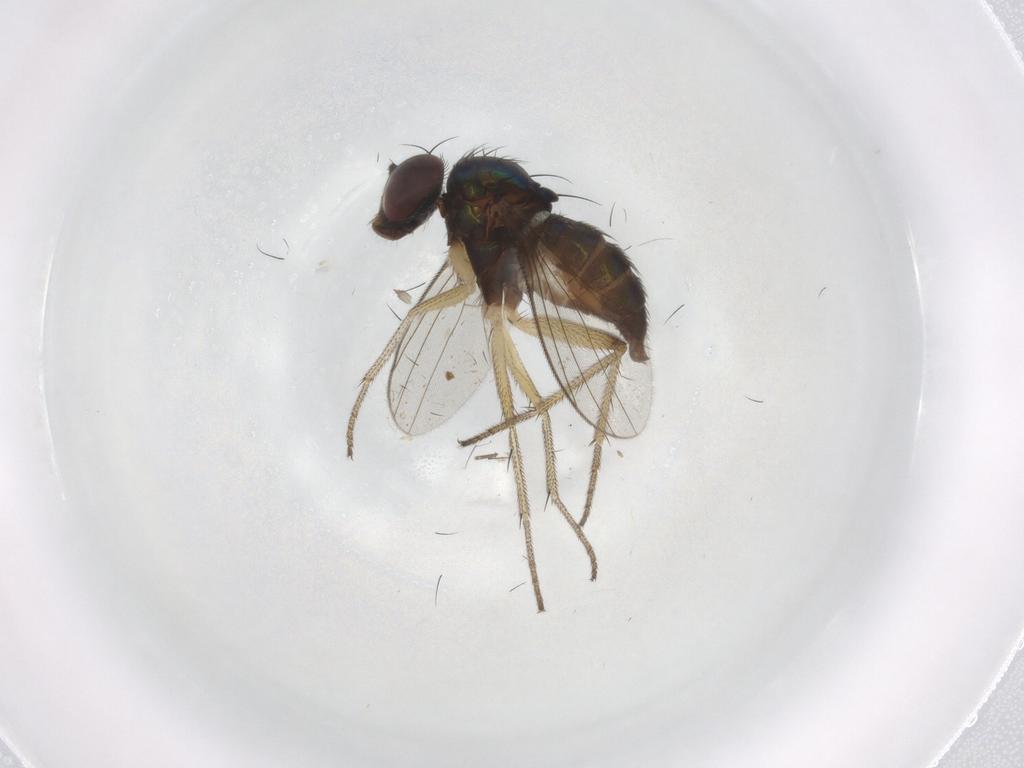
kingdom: Animalia
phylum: Arthropoda
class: Insecta
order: Diptera
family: Dolichopodidae
